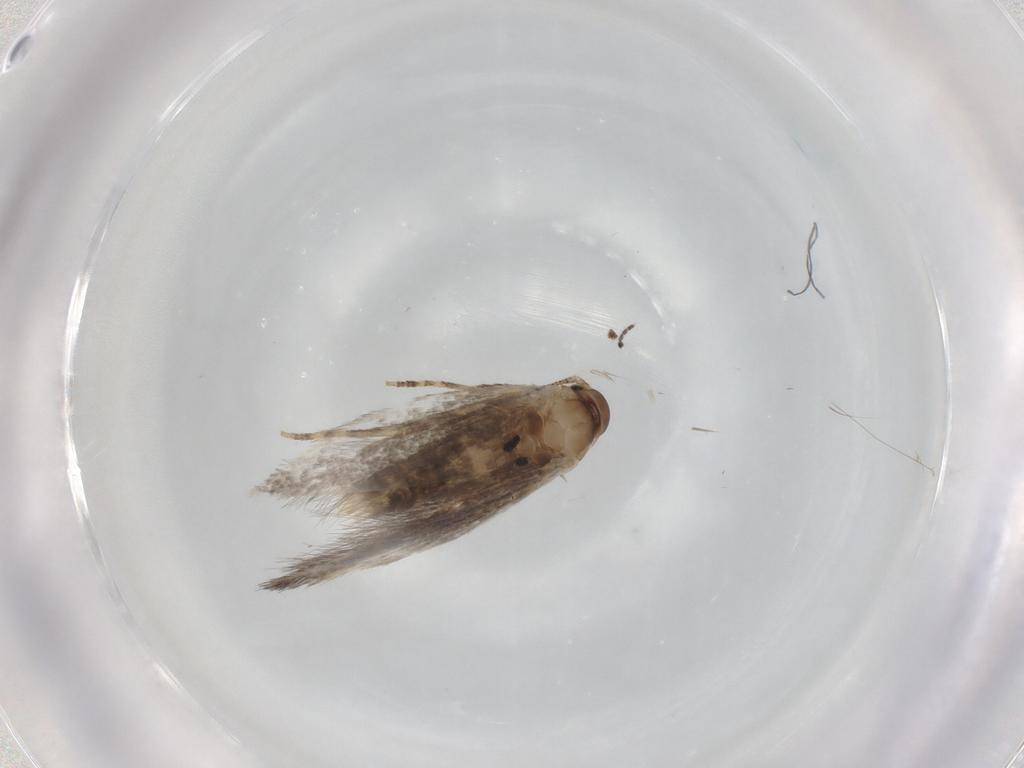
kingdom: Animalia
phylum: Arthropoda
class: Insecta
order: Lepidoptera
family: Elachistidae
